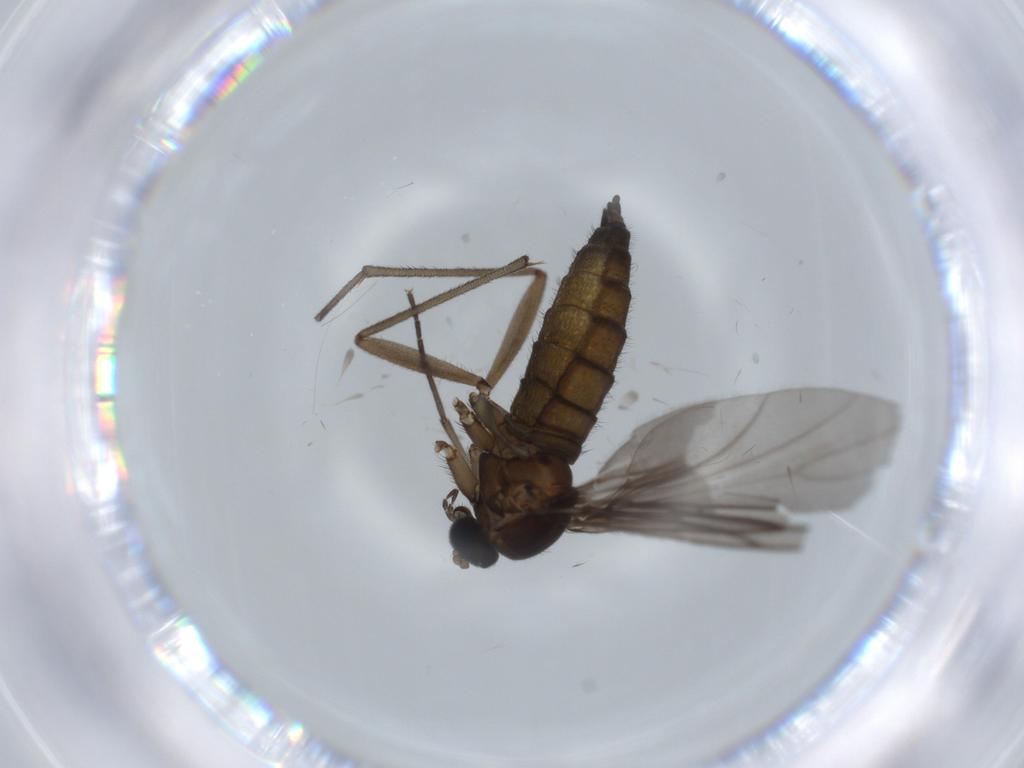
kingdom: Animalia
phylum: Arthropoda
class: Insecta
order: Diptera
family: Sciaridae
